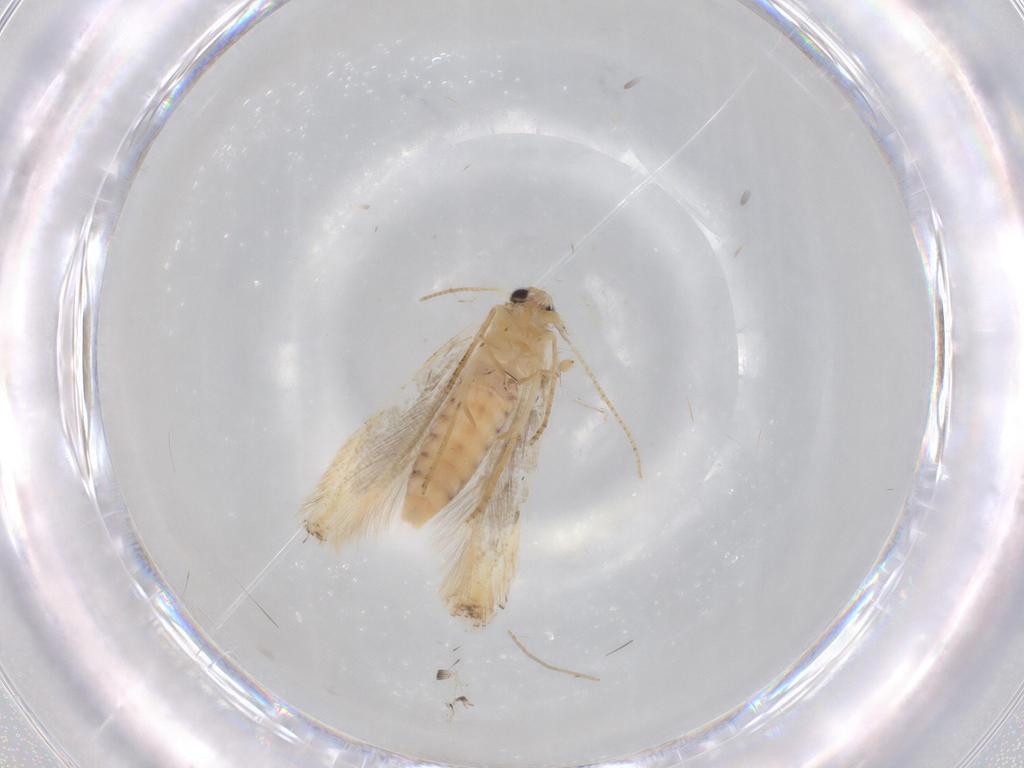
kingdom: Animalia
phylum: Arthropoda
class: Insecta
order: Lepidoptera
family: Bucculatricidae
